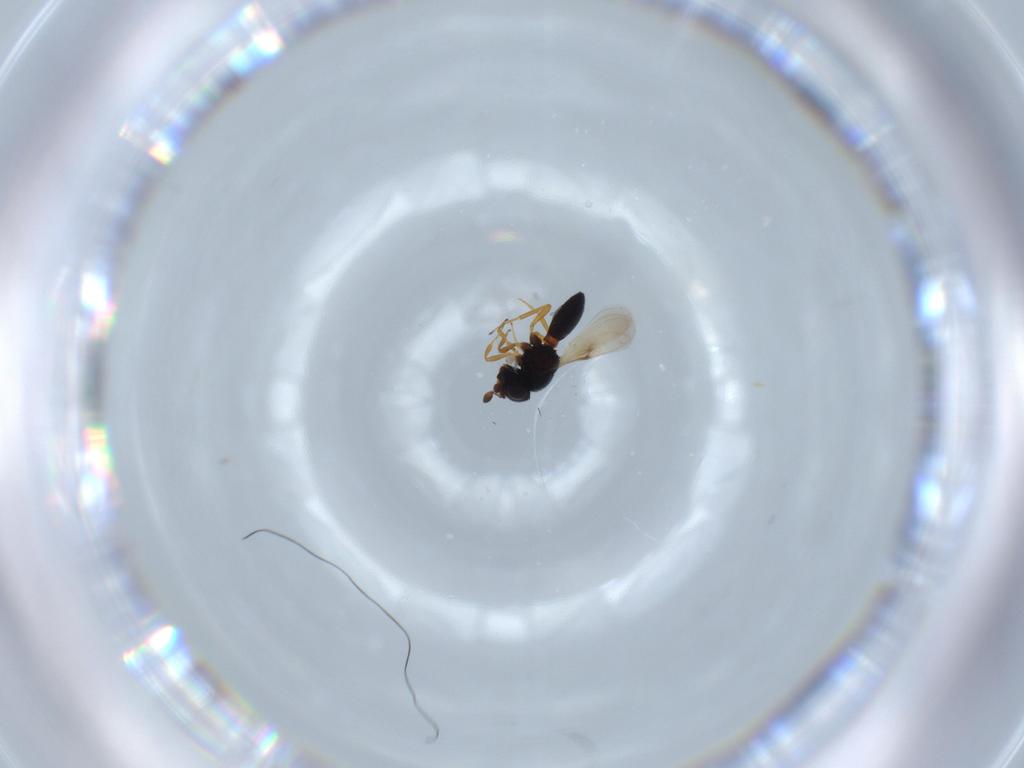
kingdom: Animalia
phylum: Arthropoda
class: Insecta
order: Hymenoptera
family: Scelionidae
